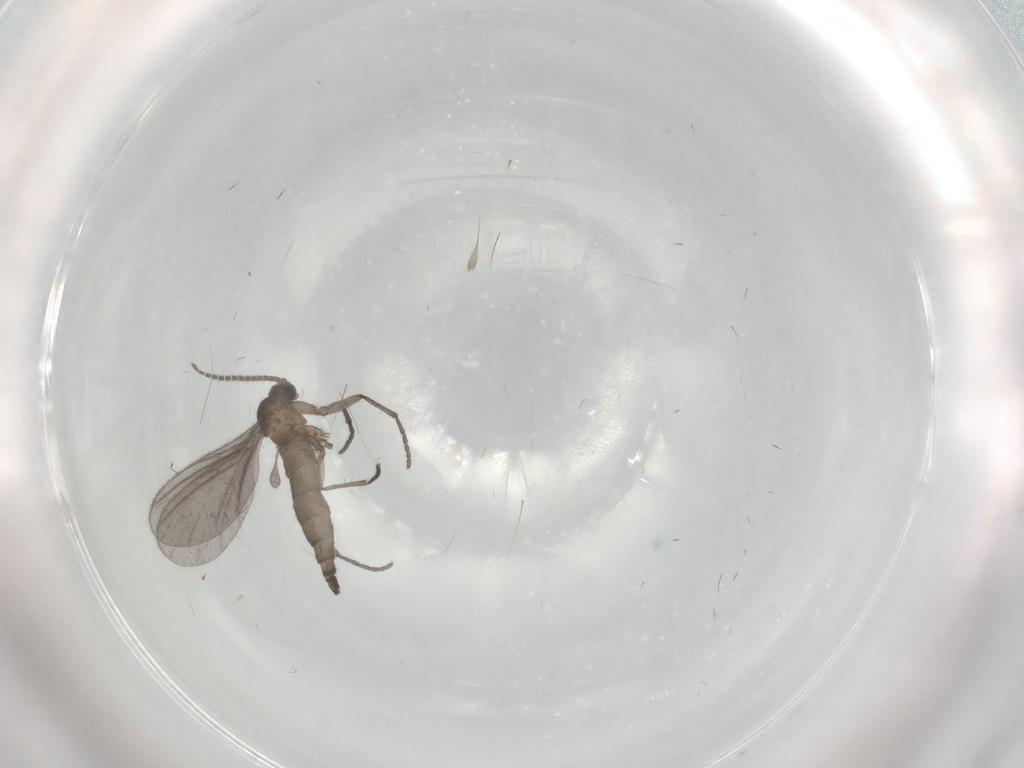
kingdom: Animalia
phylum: Arthropoda
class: Insecta
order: Diptera
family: Sciaridae
